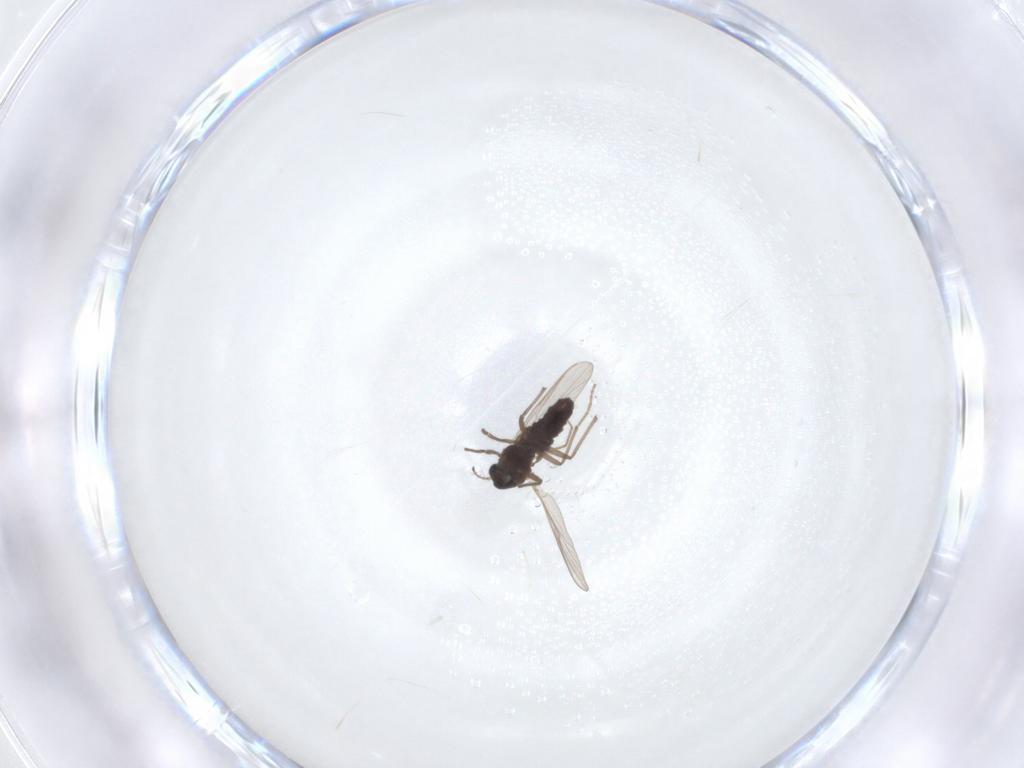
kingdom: Animalia
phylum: Arthropoda
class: Insecta
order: Diptera
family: Chironomidae
